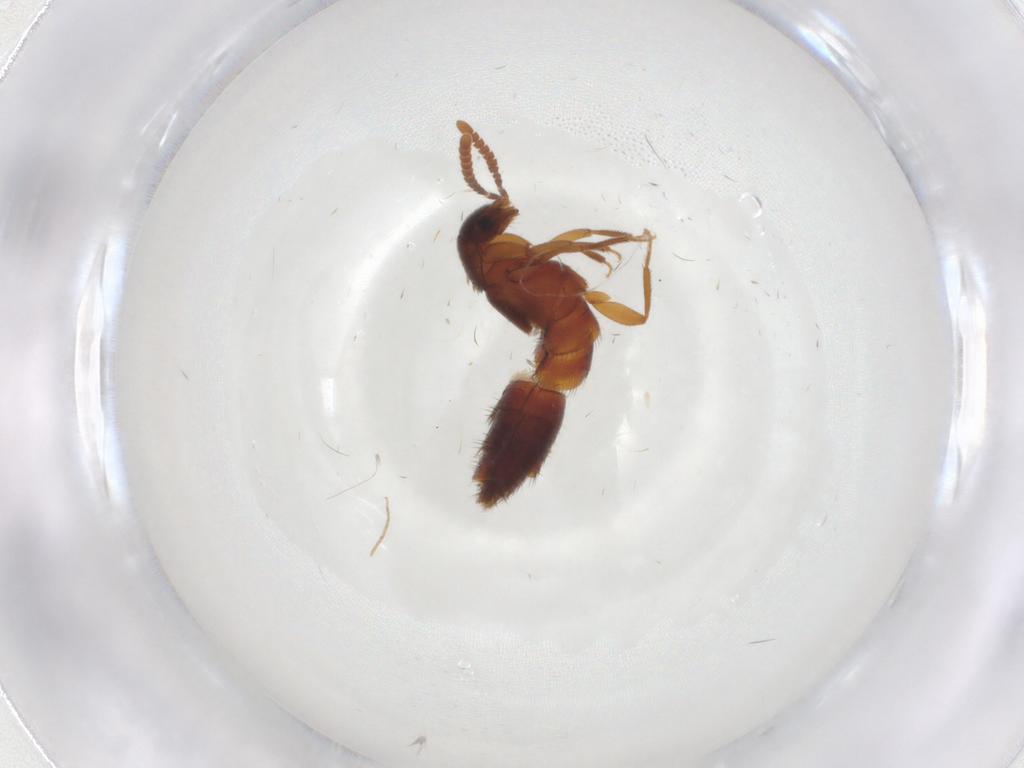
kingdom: Animalia
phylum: Arthropoda
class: Insecta
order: Coleoptera
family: Staphylinidae
